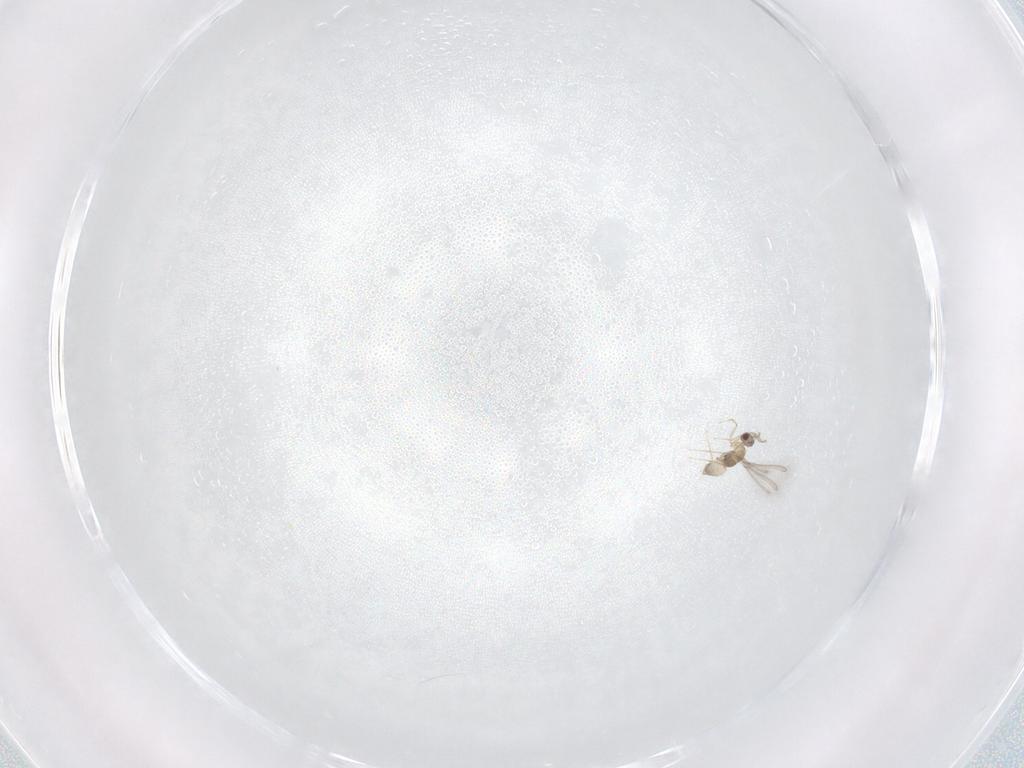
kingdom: Animalia
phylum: Arthropoda
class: Insecta
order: Hymenoptera
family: Mymaridae
